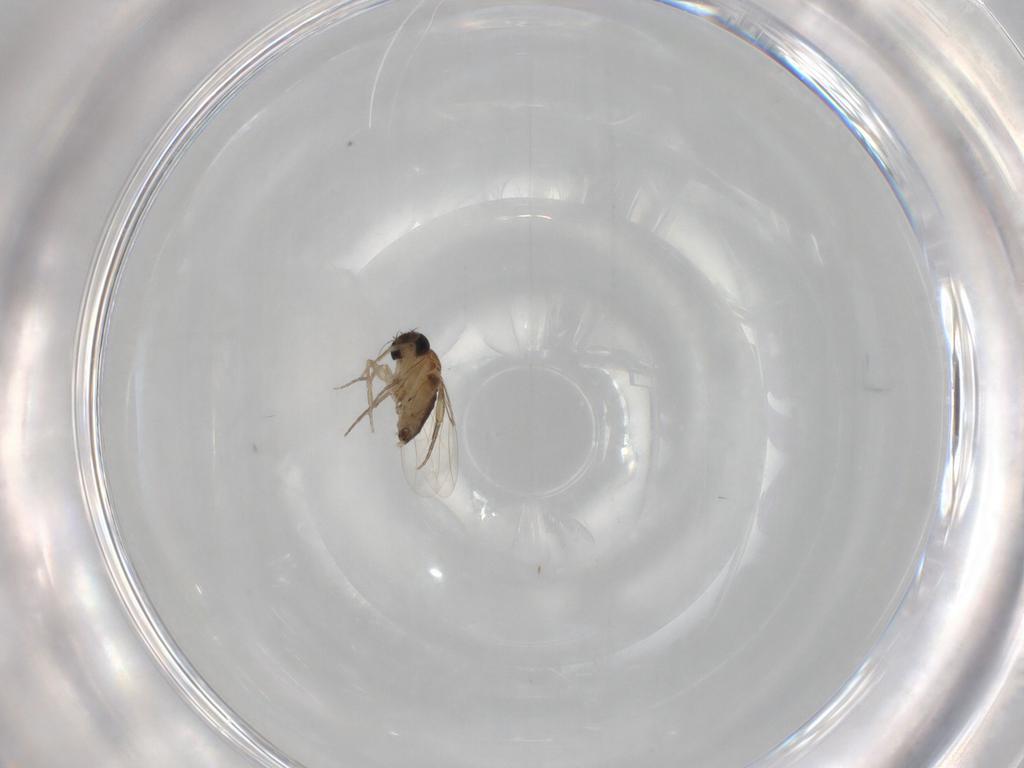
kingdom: Animalia
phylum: Arthropoda
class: Insecta
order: Diptera
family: Phoridae
